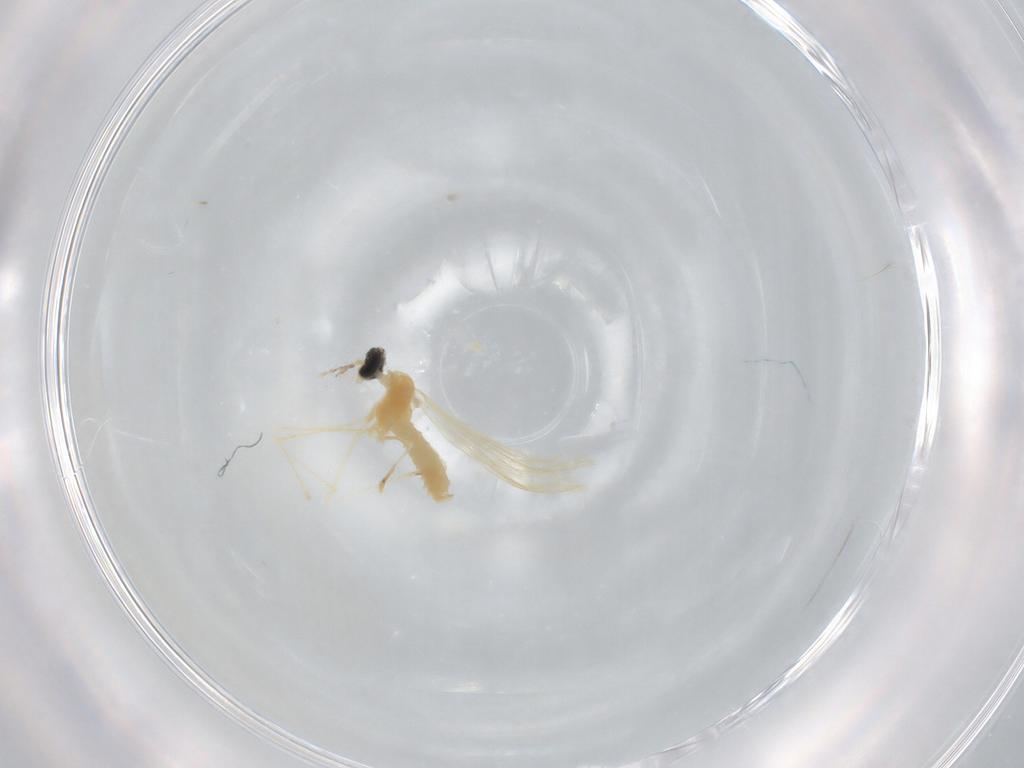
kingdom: Animalia
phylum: Arthropoda
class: Insecta
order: Diptera
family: Cecidomyiidae
